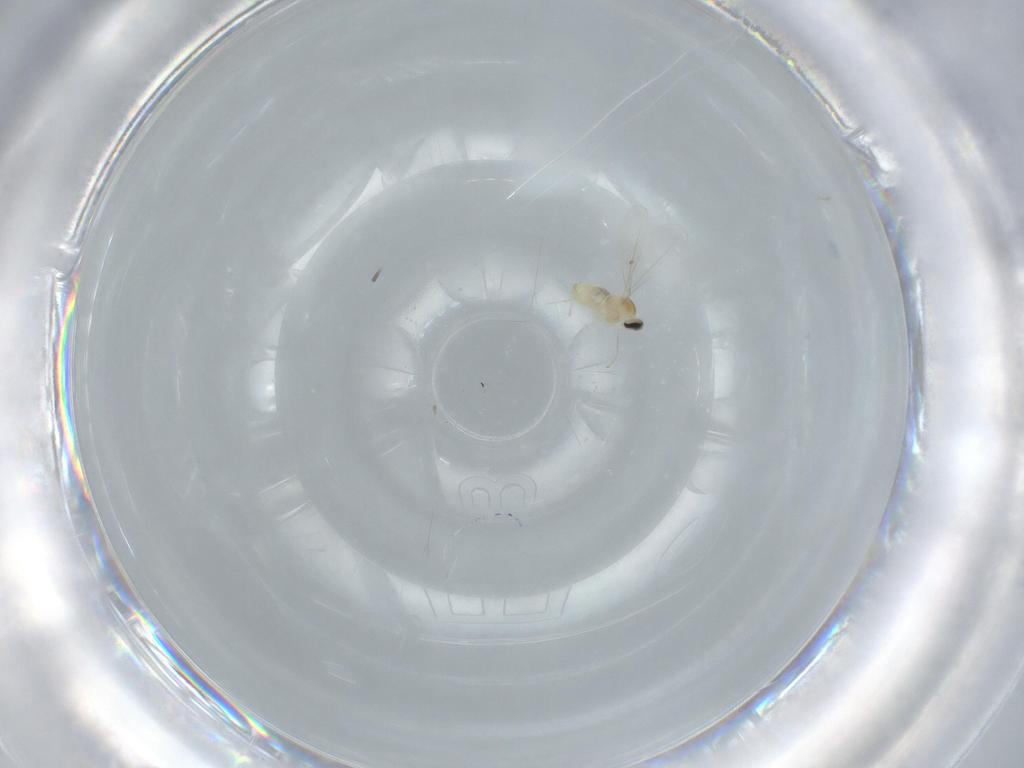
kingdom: Animalia
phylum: Arthropoda
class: Insecta
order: Diptera
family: Cecidomyiidae
